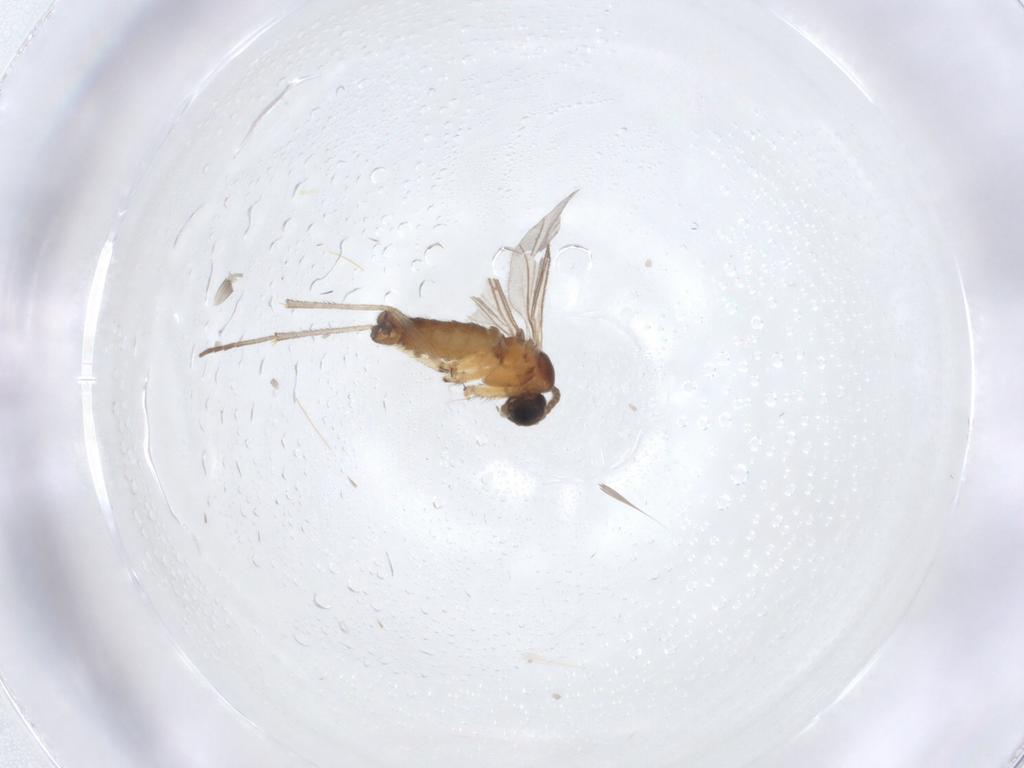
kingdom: Animalia
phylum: Arthropoda
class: Insecta
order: Diptera
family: Sciaridae
